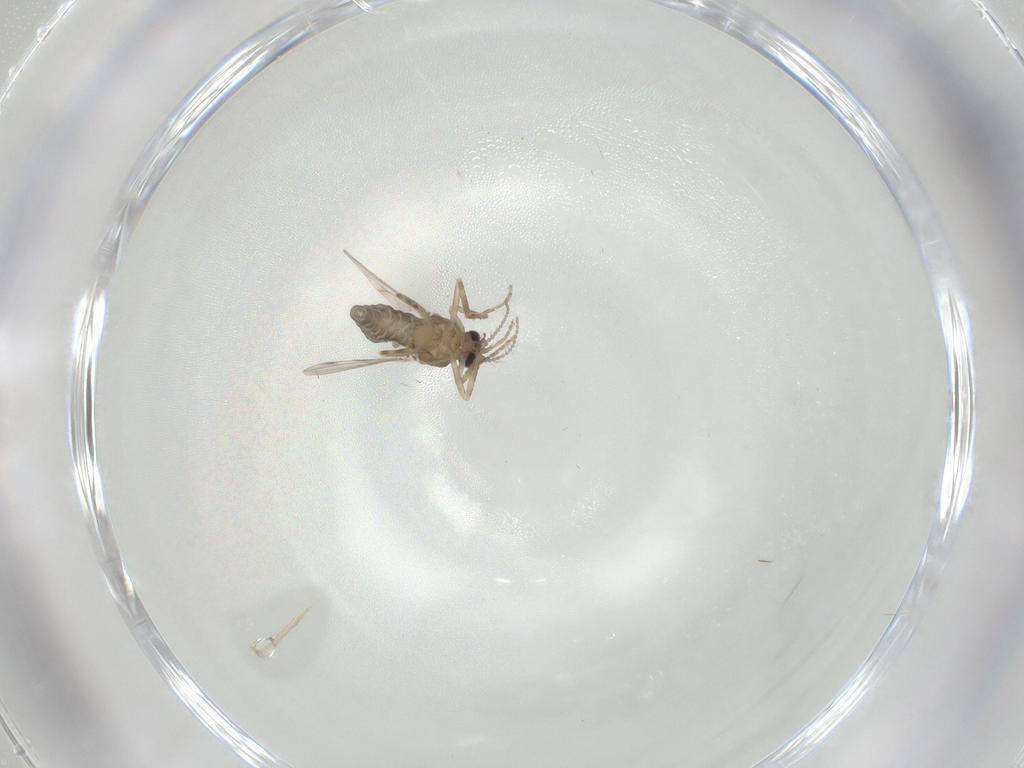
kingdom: Animalia
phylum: Arthropoda
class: Insecta
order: Diptera
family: Ceratopogonidae
